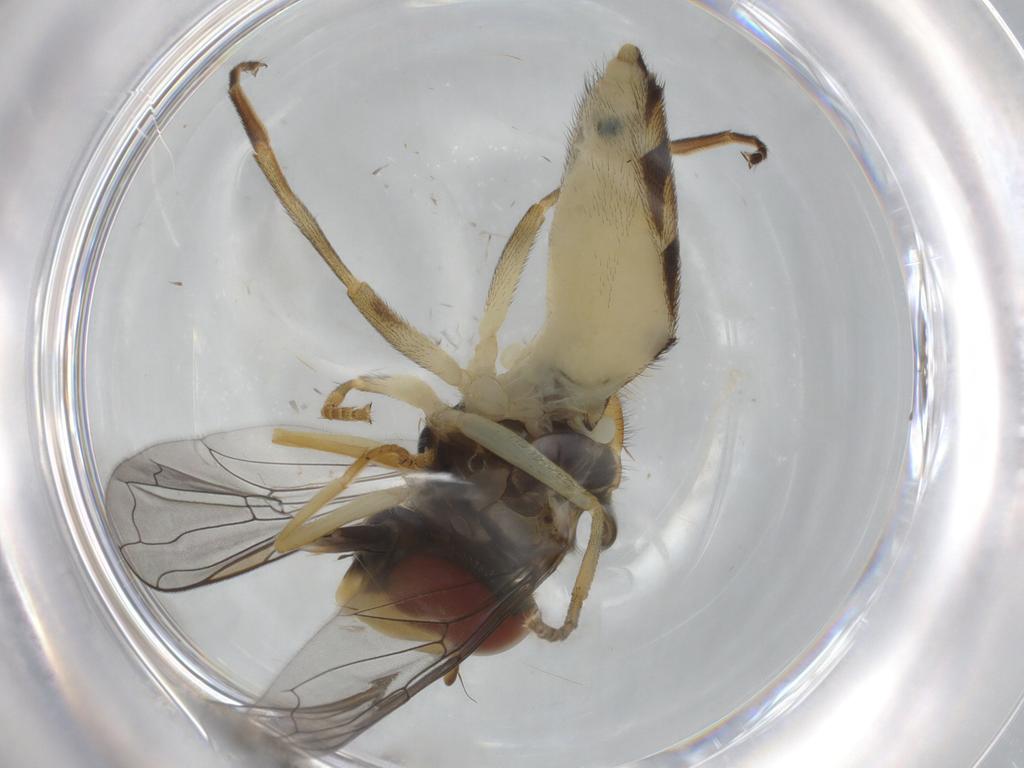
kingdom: Animalia
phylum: Arthropoda
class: Insecta
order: Diptera
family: Syrphidae
